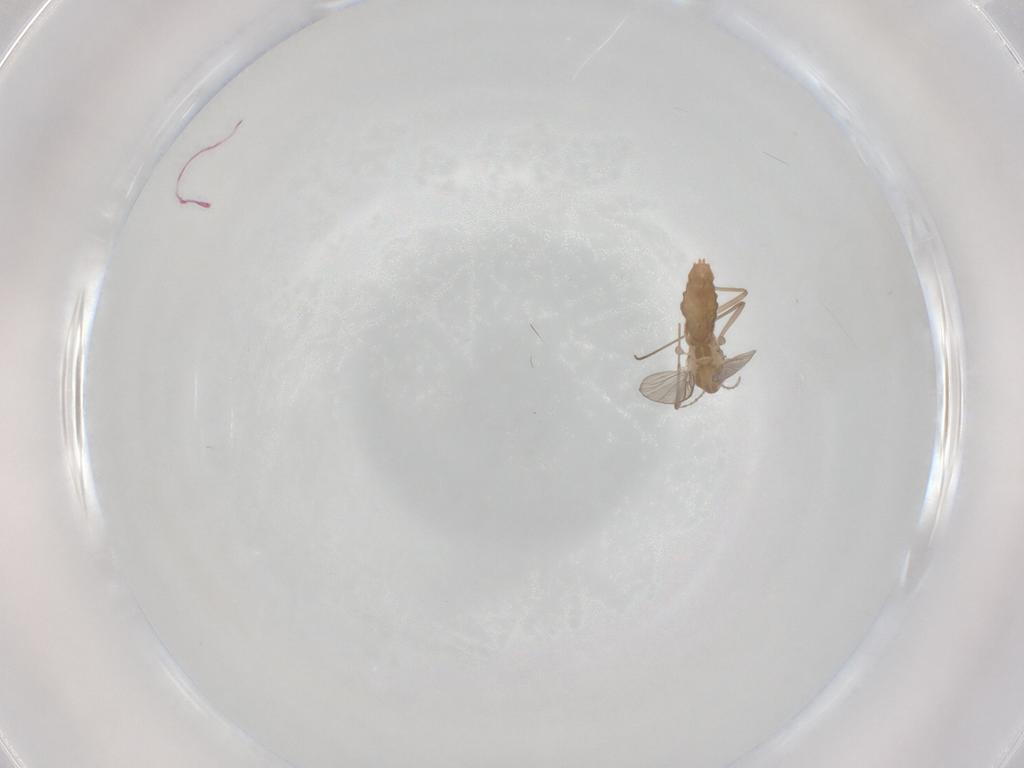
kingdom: Animalia
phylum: Arthropoda
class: Insecta
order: Diptera
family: Chironomidae
